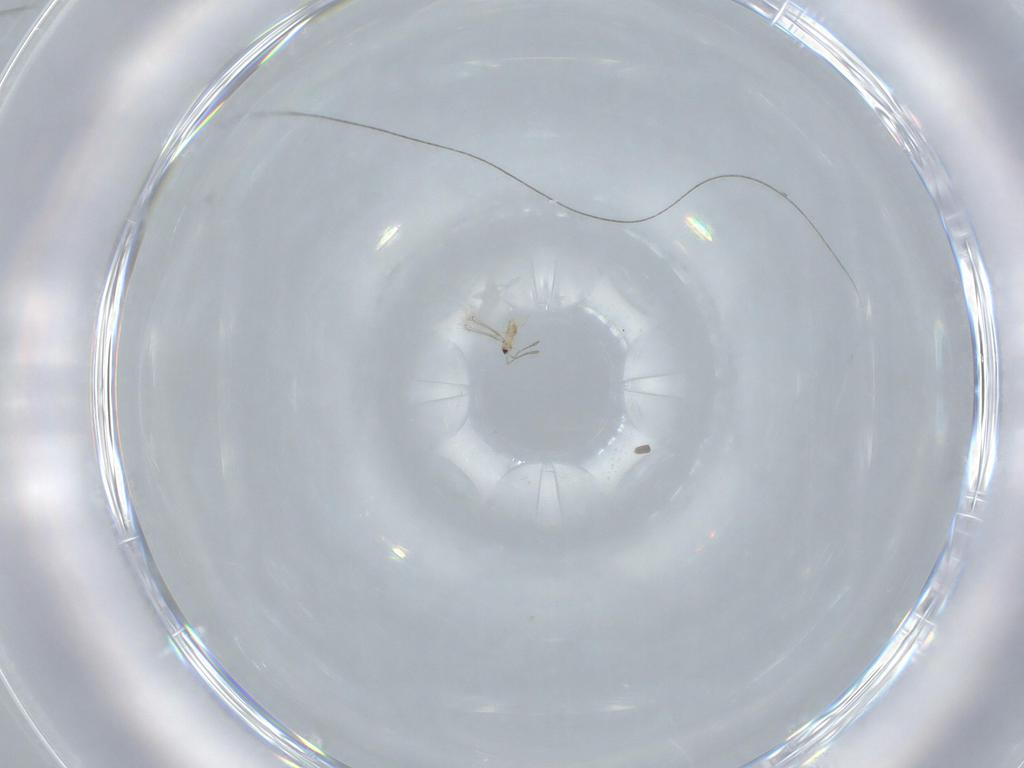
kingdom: Animalia
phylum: Arthropoda
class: Insecta
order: Hymenoptera
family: Mymaridae
